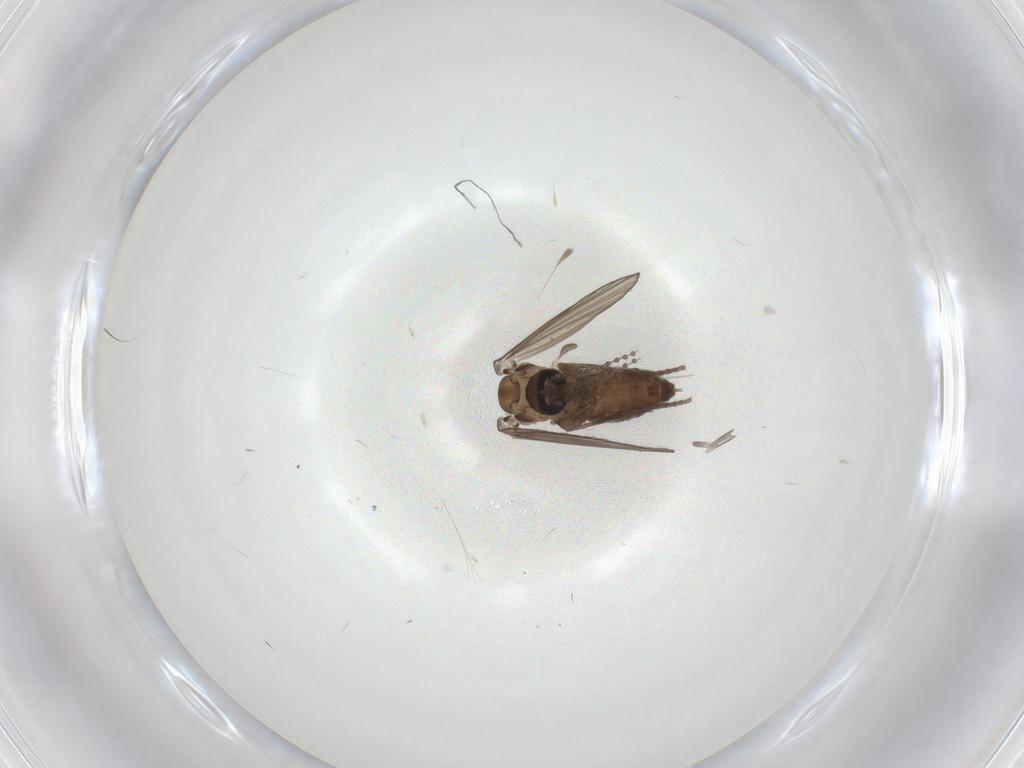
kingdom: Animalia
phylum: Arthropoda
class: Insecta
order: Diptera
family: Psychodidae
